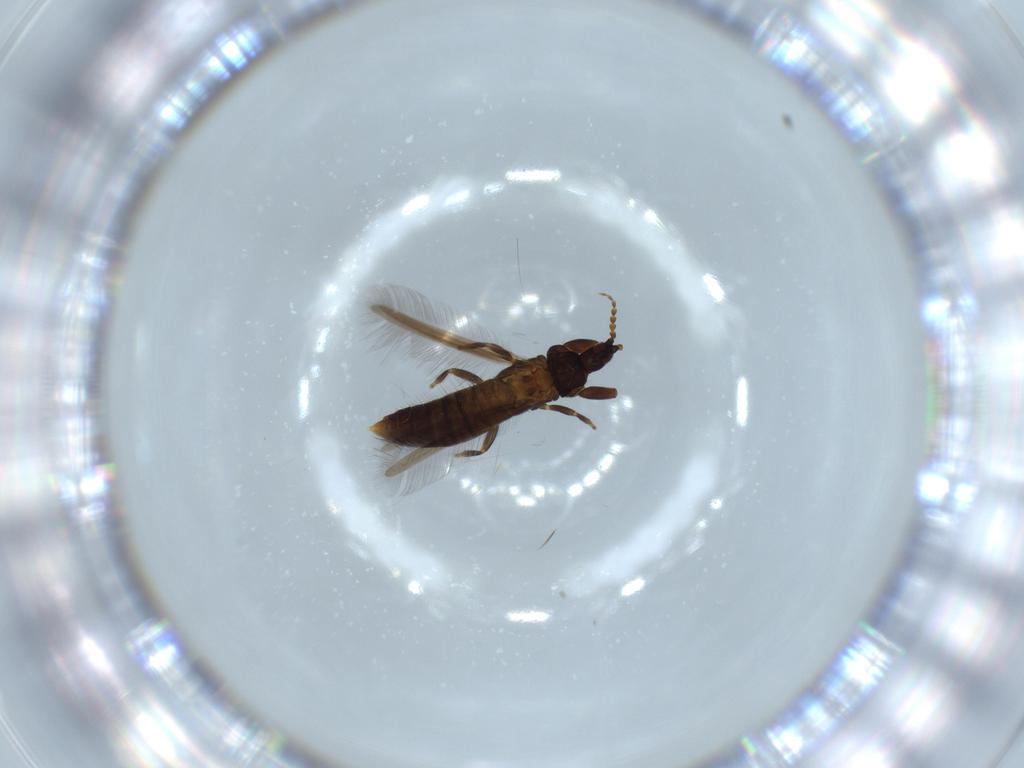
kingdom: Animalia
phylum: Arthropoda
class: Insecta
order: Thysanoptera
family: Phlaeothripidae
